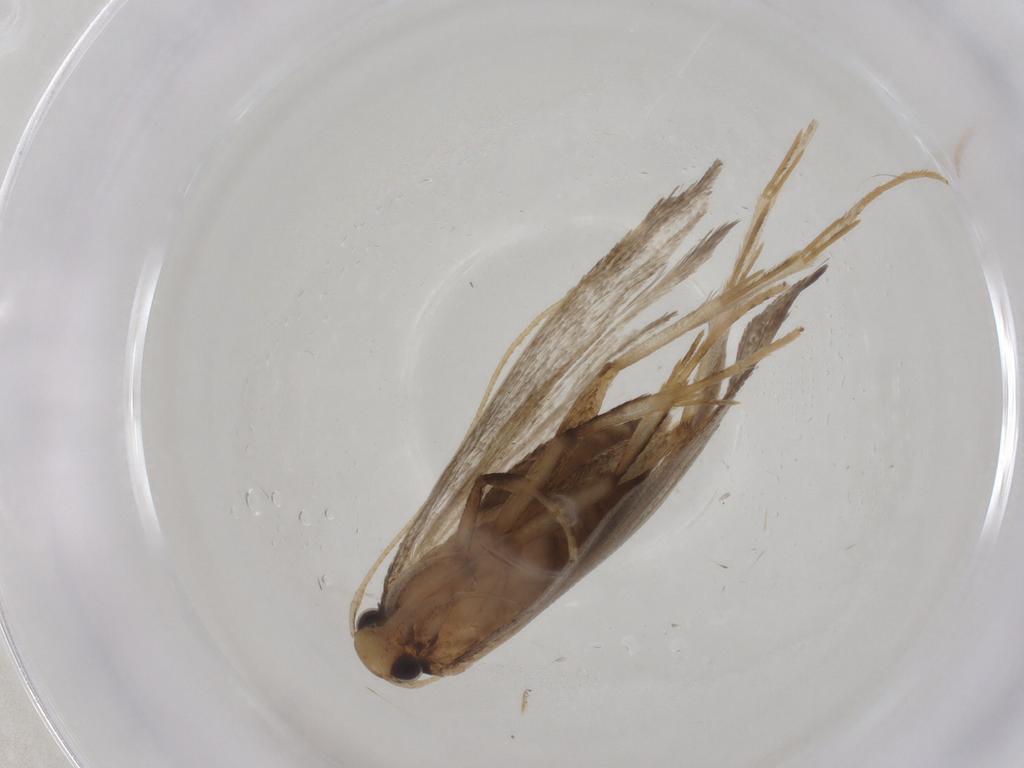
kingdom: Animalia
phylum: Arthropoda
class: Insecta
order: Lepidoptera
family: Lecithoceridae
